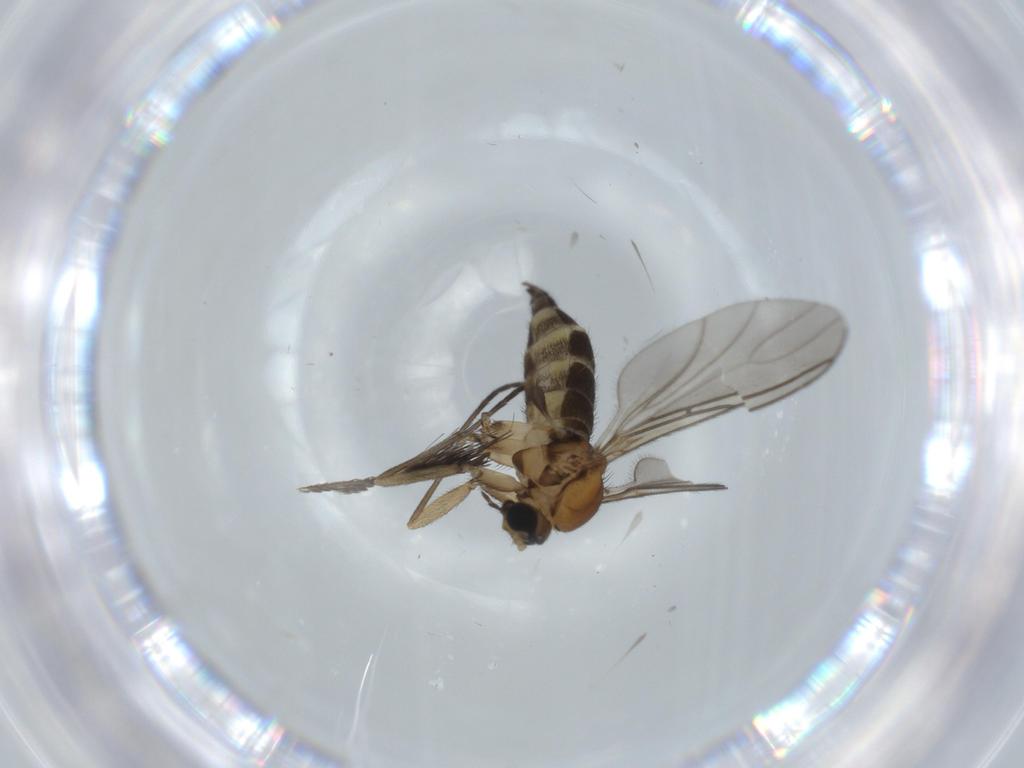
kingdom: Animalia
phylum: Arthropoda
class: Insecta
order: Diptera
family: Sciaridae
